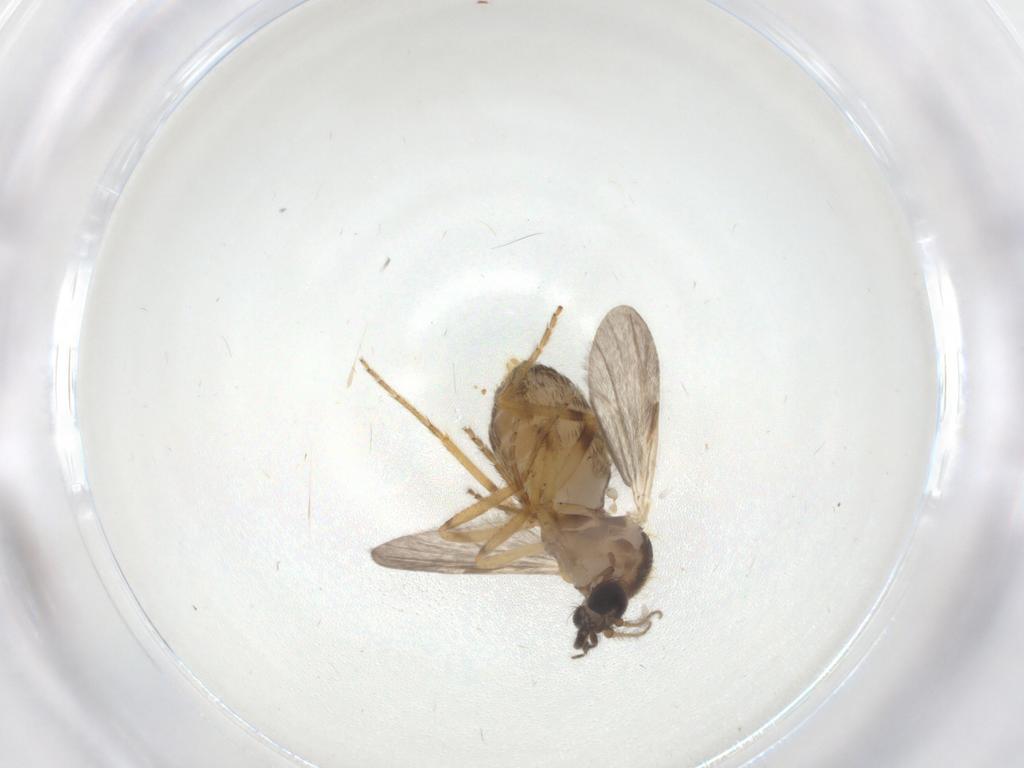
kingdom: Animalia
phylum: Arthropoda
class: Insecta
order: Diptera
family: Ceratopogonidae
